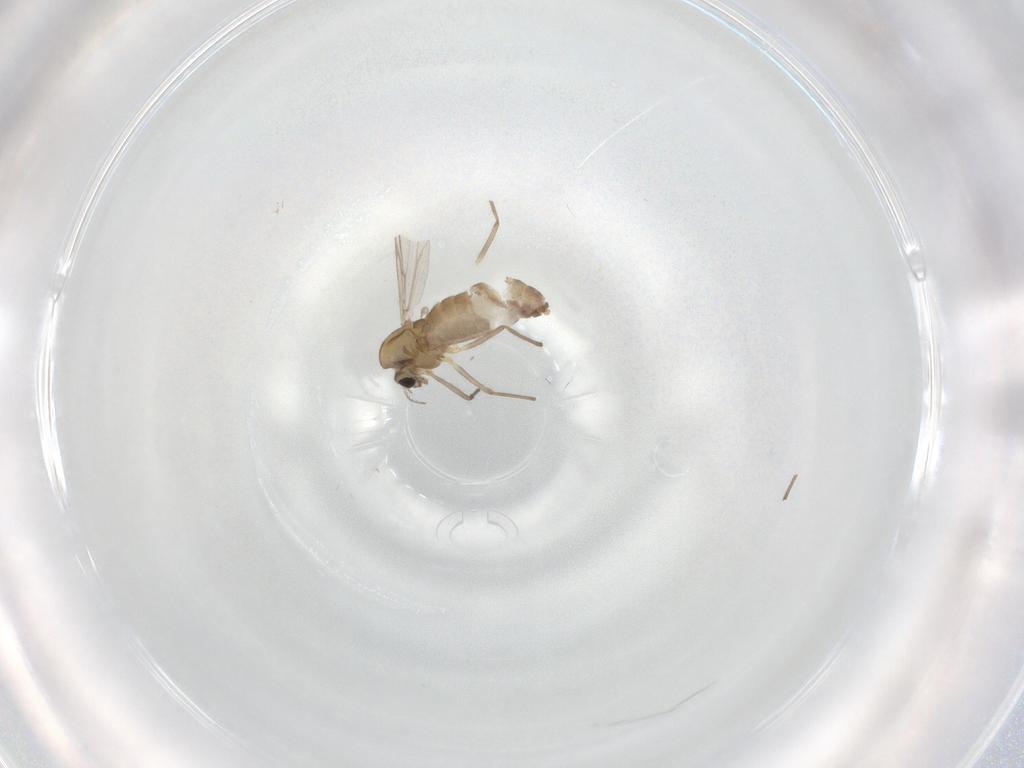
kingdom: Animalia
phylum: Arthropoda
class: Insecta
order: Diptera
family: Chironomidae
